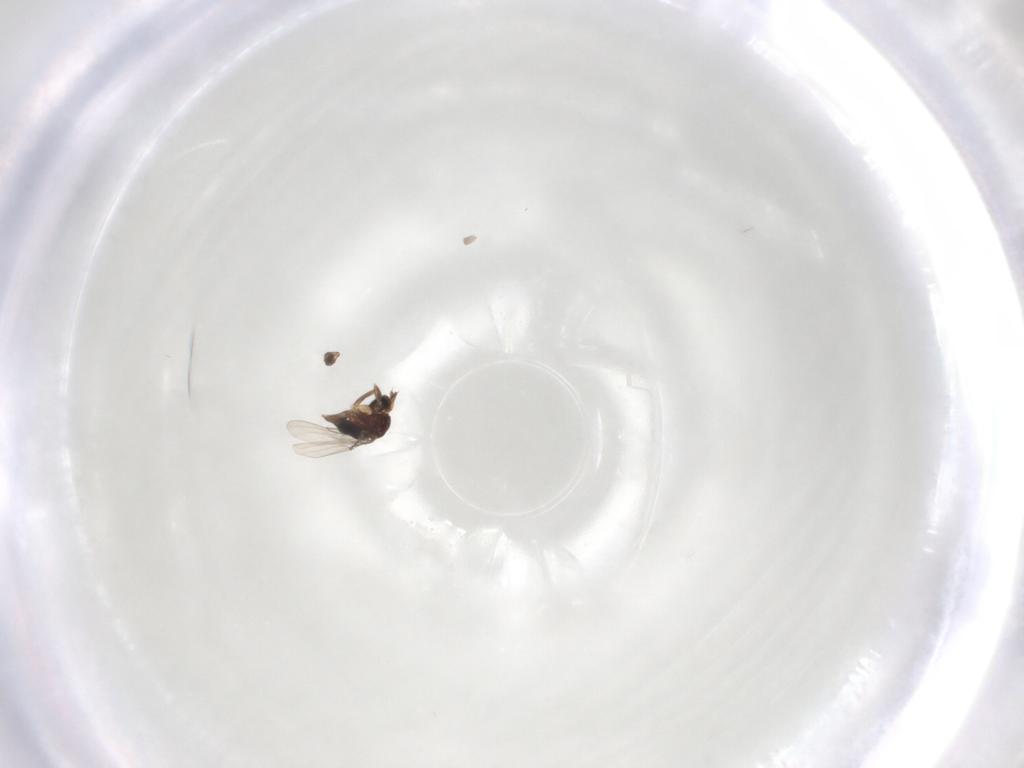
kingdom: Animalia
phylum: Arthropoda
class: Insecta
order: Diptera
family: Phoridae
